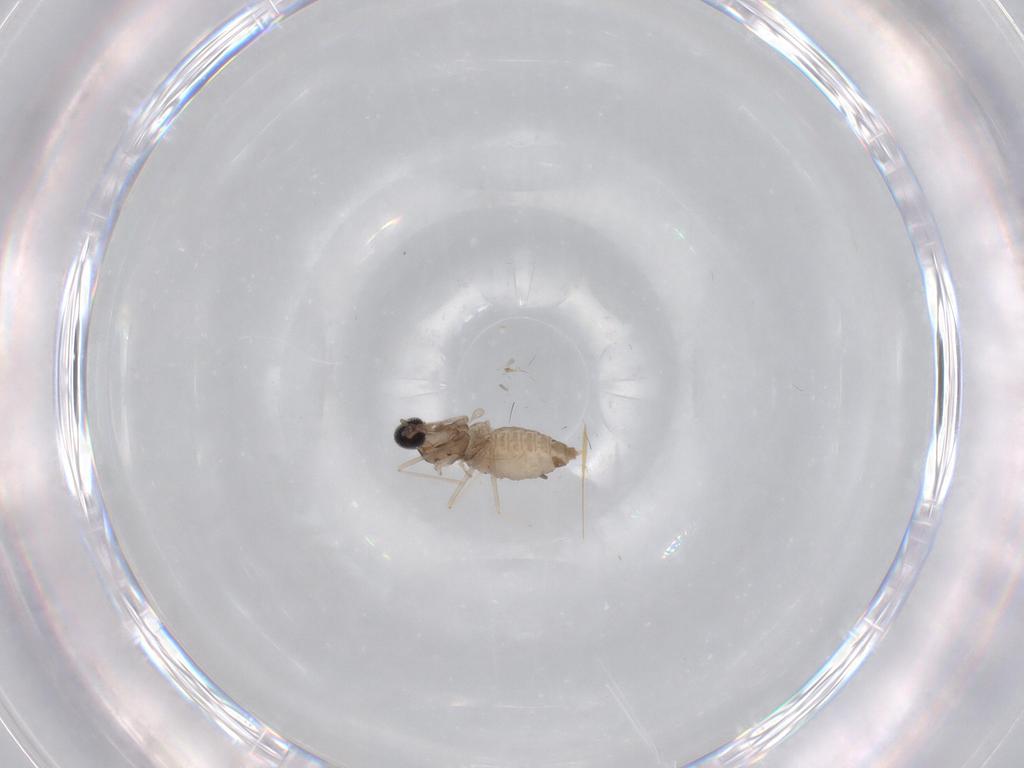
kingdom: Animalia
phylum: Arthropoda
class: Insecta
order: Diptera
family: Cecidomyiidae
